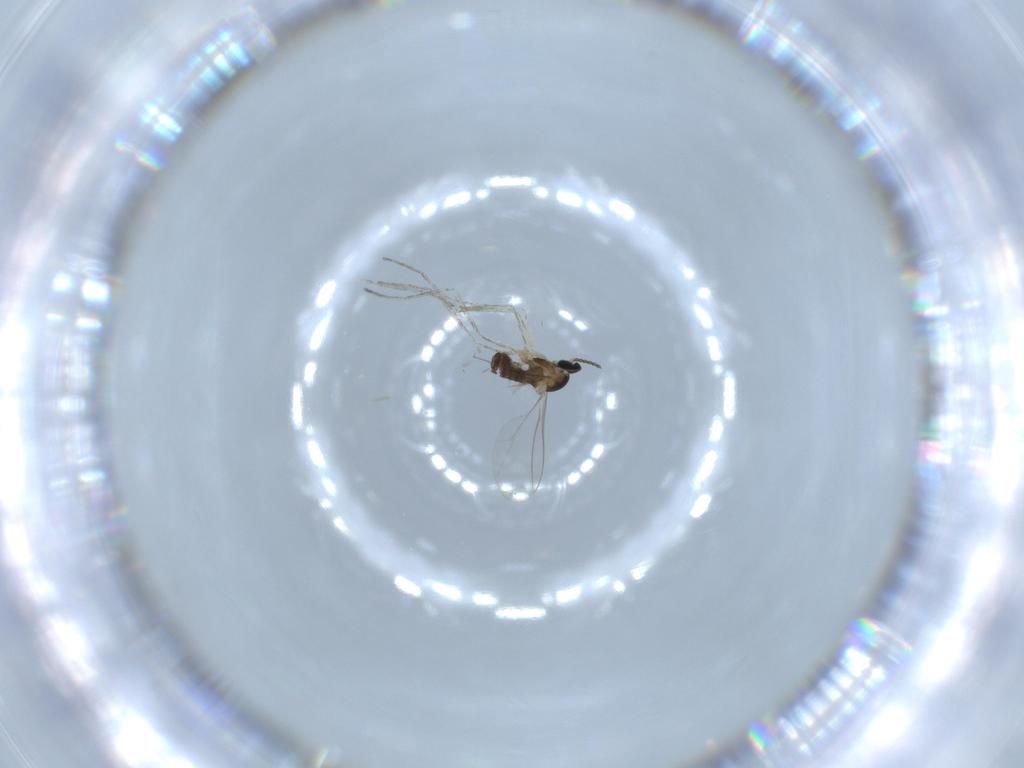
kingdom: Animalia
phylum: Arthropoda
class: Insecta
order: Diptera
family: Cecidomyiidae
